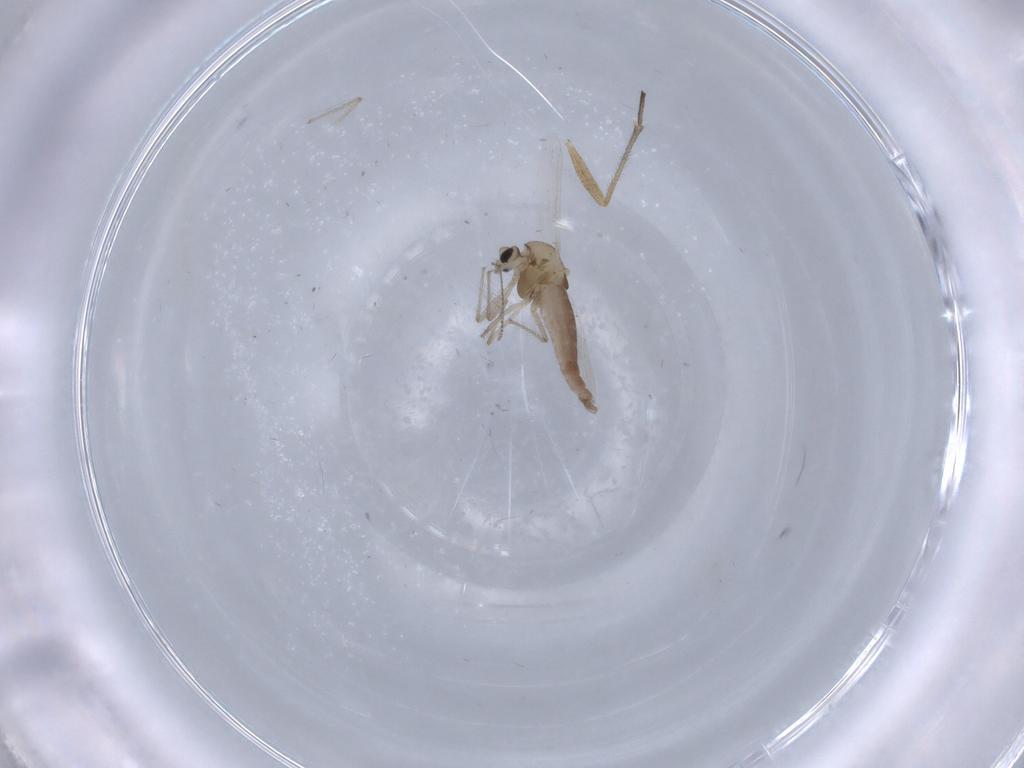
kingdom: Animalia
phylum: Arthropoda
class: Insecta
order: Diptera
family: Chironomidae
